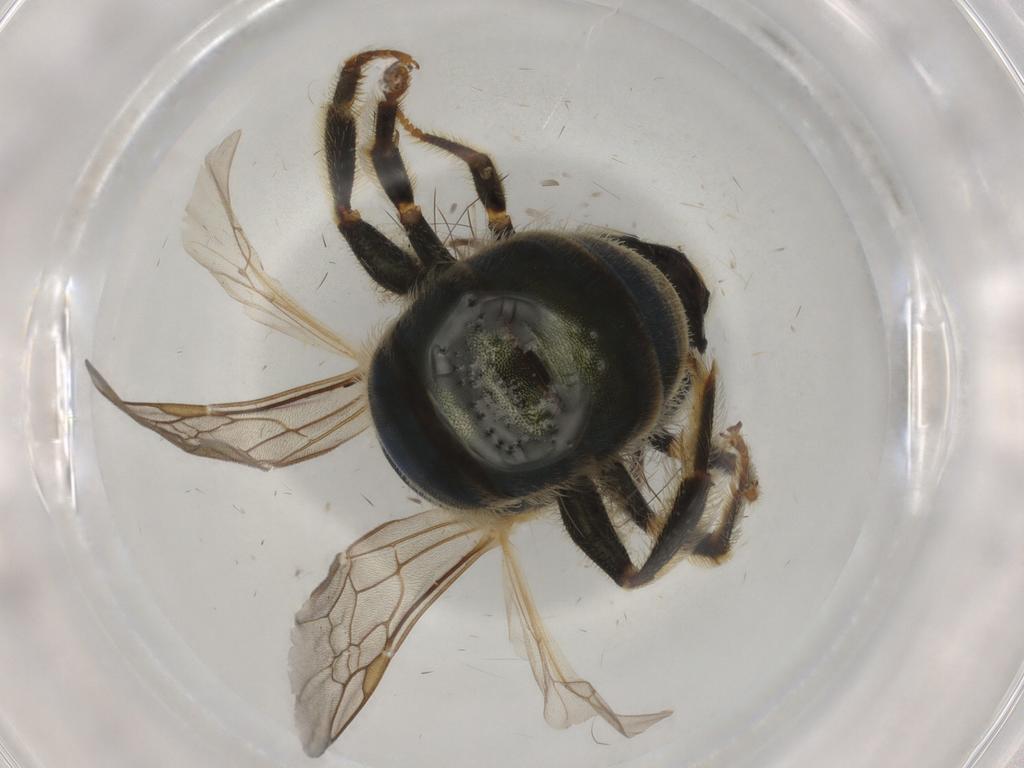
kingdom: Animalia
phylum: Arthropoda
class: Insecta
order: Hymenoptera
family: Halictidae
